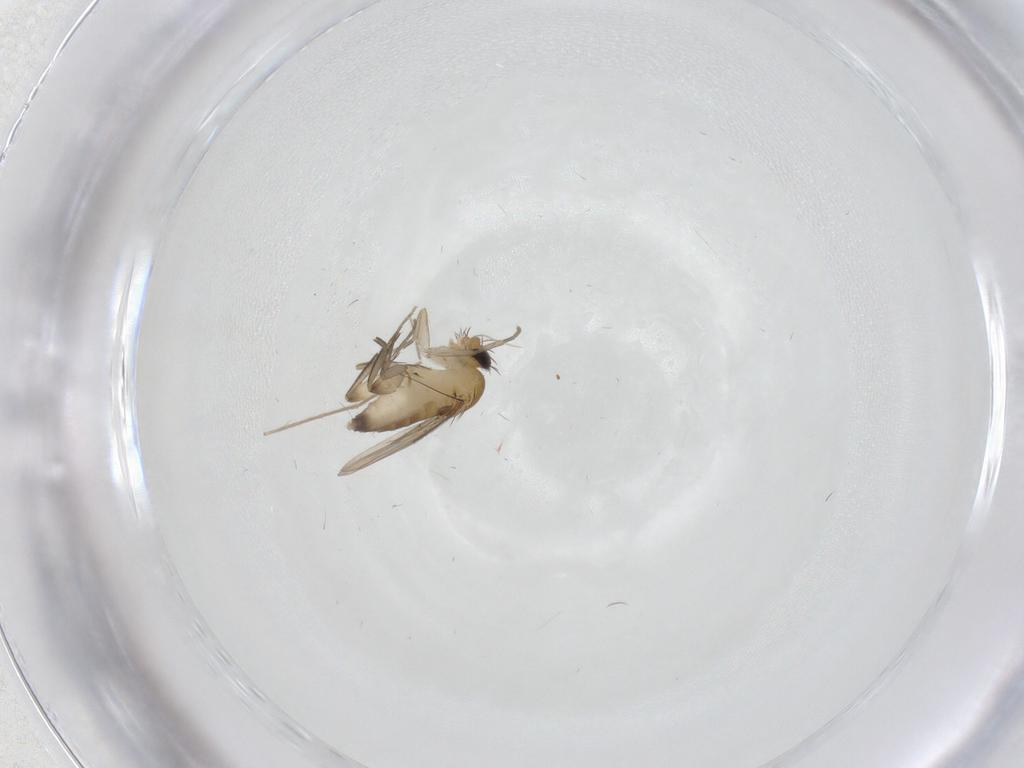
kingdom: Animalia
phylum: Arthropoda
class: Insecta
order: Diptera
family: Phoridae
